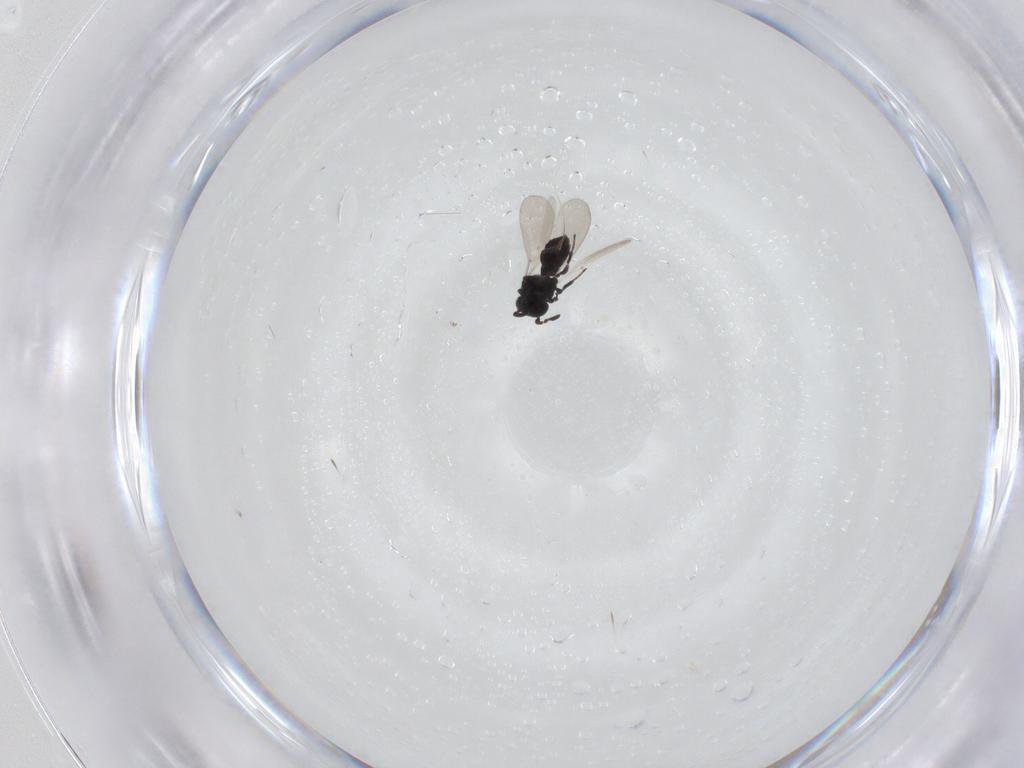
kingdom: Animalia
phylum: Arthropoda
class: Insecta
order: Hymenoptera
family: Platygastridae
